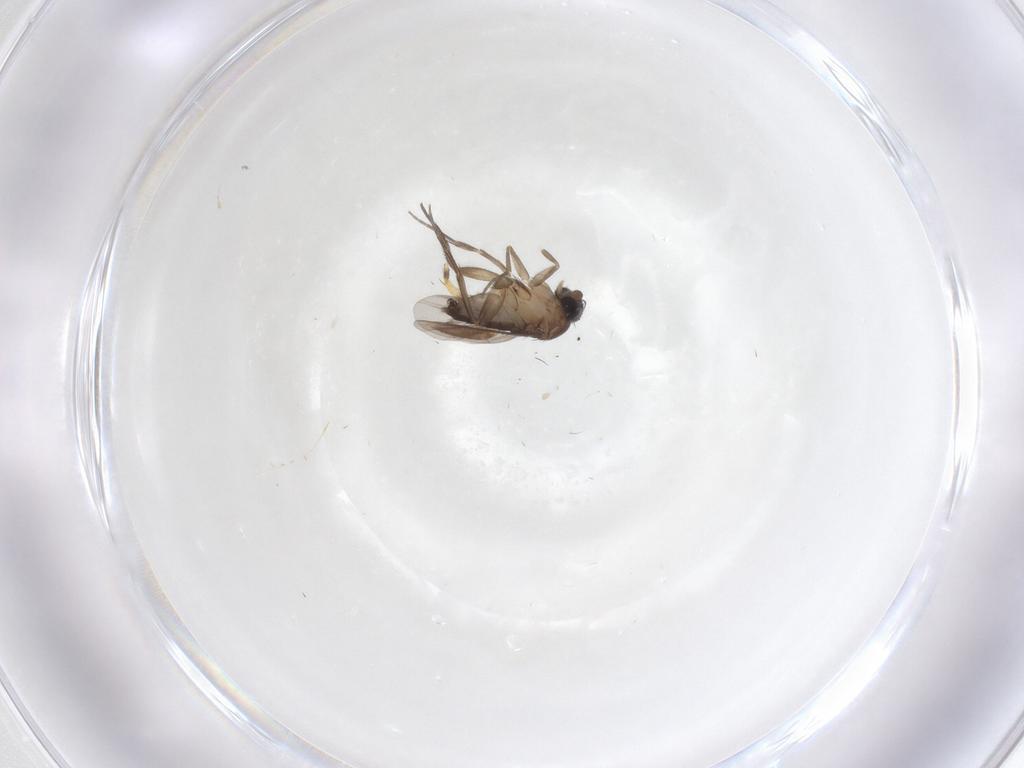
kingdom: Animalia
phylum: Arthropoda
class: Insecta
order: Diptera
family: Phoridae
